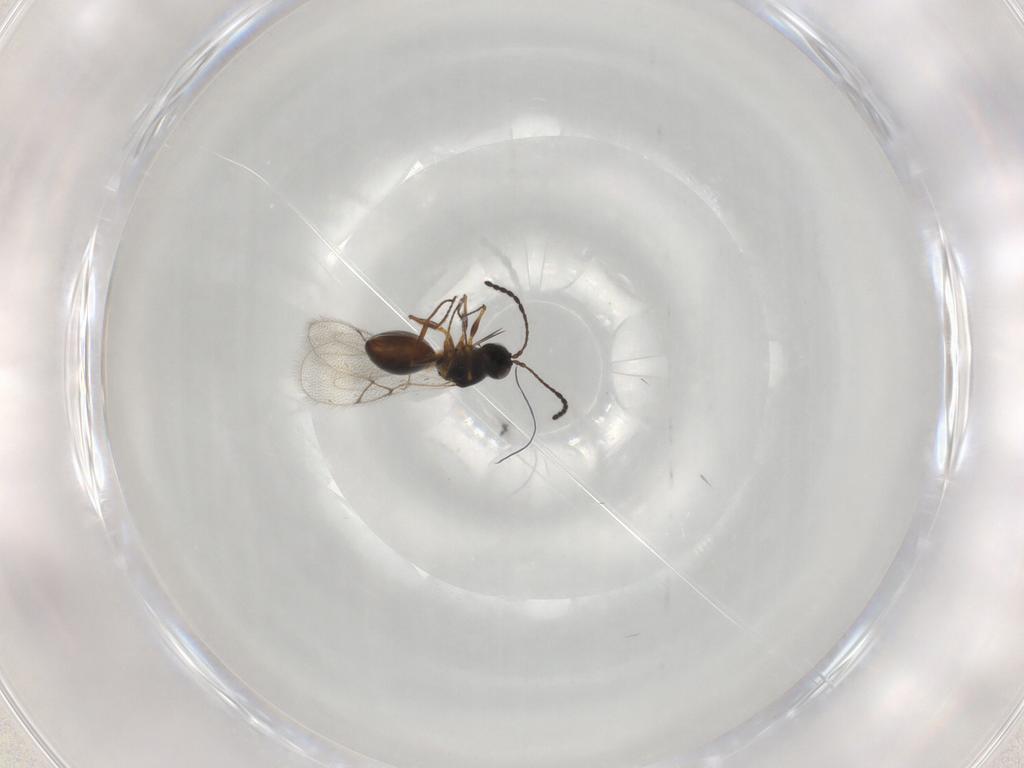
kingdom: Animalia
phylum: Arthropoda
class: Insecta
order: Hymenoptera
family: Figitidae
